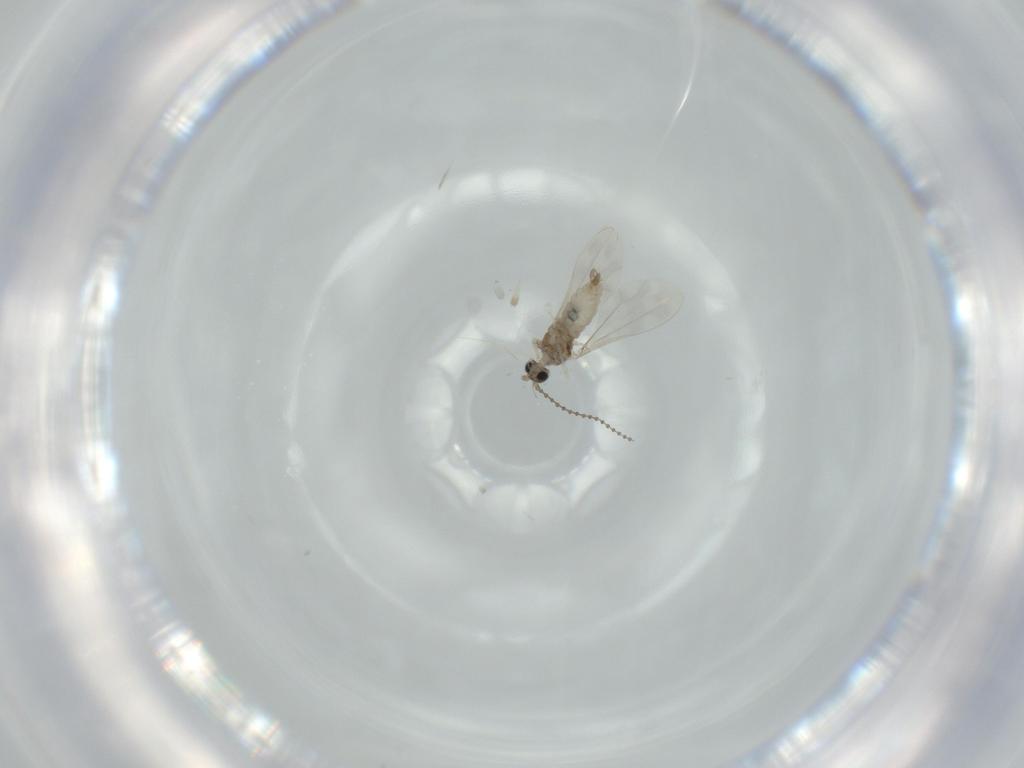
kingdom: Animalia
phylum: Arthropoda
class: Insecta
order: Diptera
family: Cecidomyiidae
